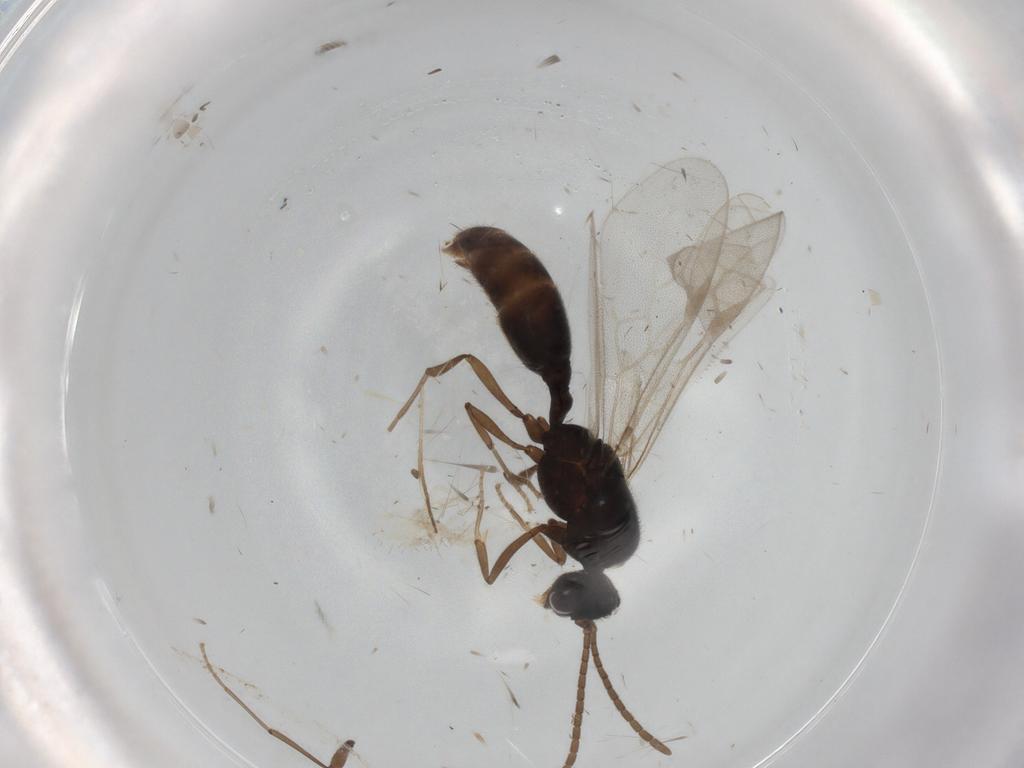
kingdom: Animalia
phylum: Arthropoda
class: Insecta
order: Hymenoptera
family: Formicidae
